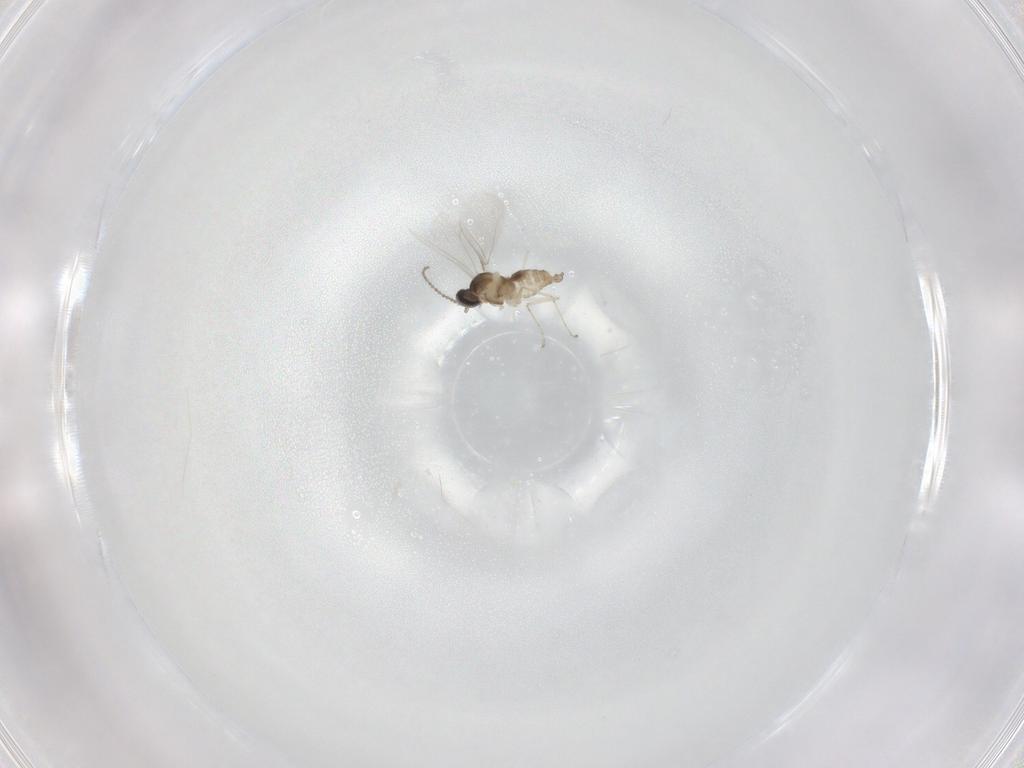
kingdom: Animalia
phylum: Arthropoda
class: Insecta
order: Diptera
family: Cecidomyiidae
